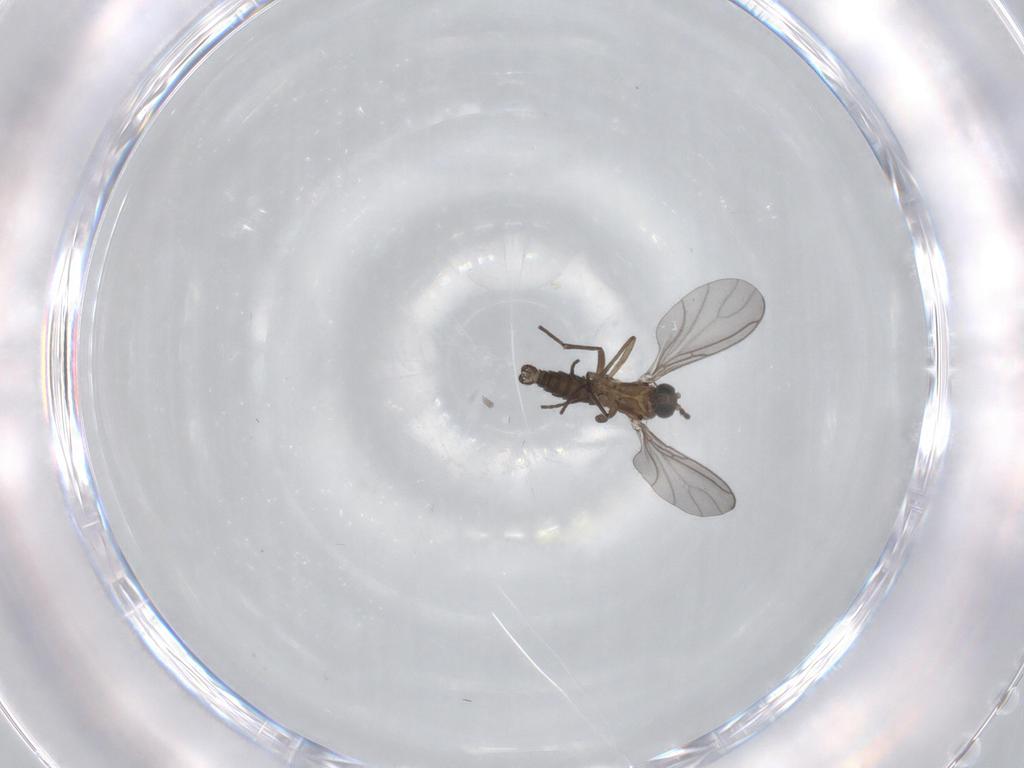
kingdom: Animalia
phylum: Arthropoda
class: Insecta
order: Diptera
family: Sciaridae
